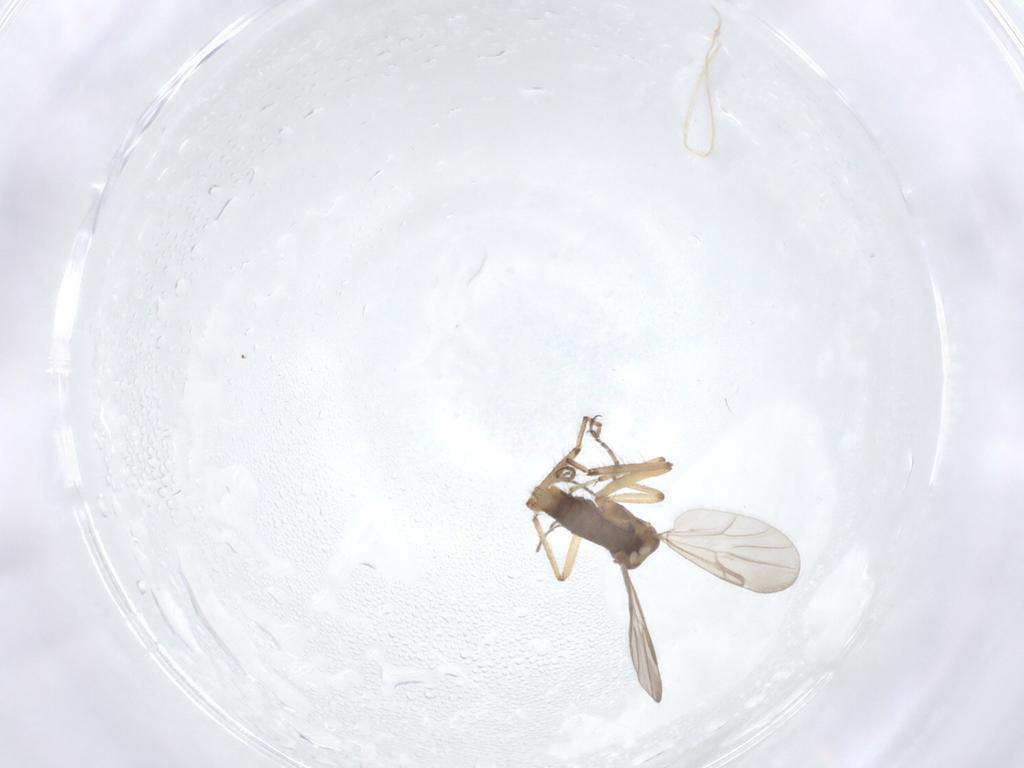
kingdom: Animalia
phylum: Arthropoda
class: Insecta
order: Diptera
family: Ceratopogonidae
